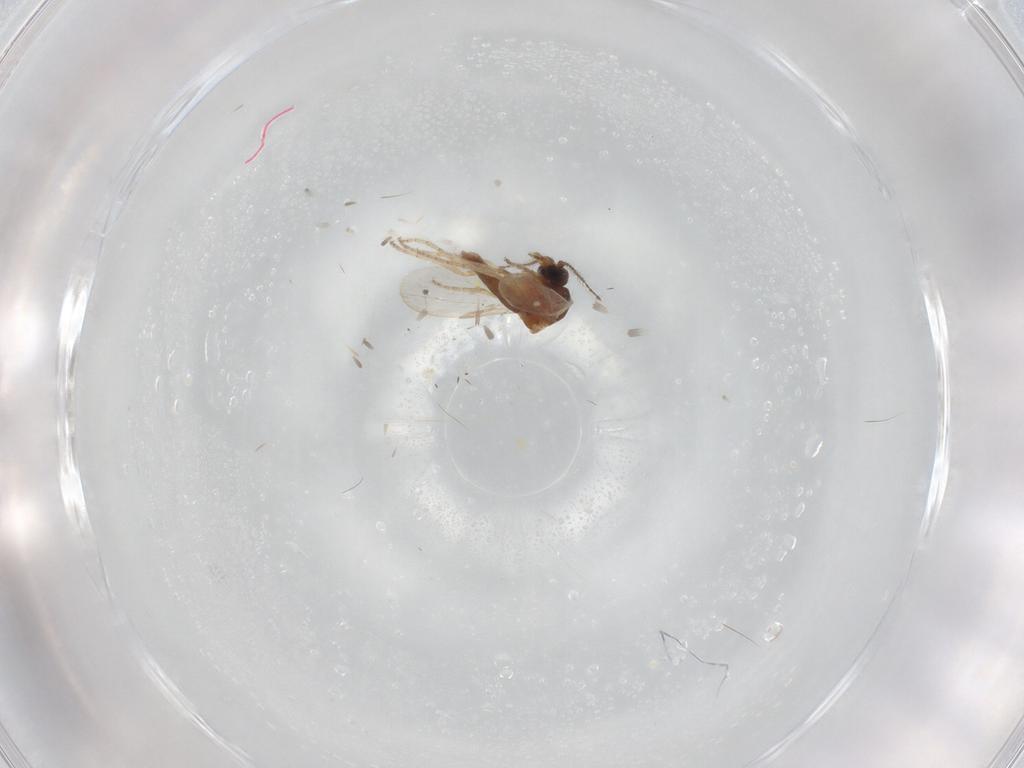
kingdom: Animalia
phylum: Arthropoda
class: Insecta
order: Diptera
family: Ceratopogonidae
